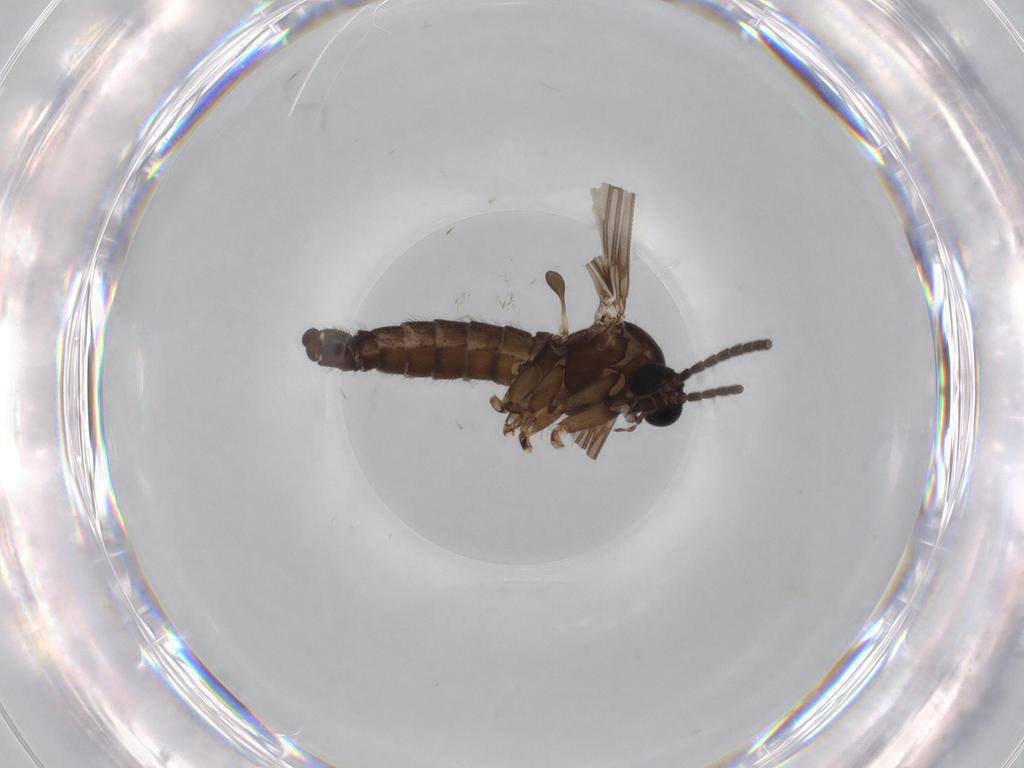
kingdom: Animalia
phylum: Arthropoda
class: Insecta
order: Diptera
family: Sciaridae
